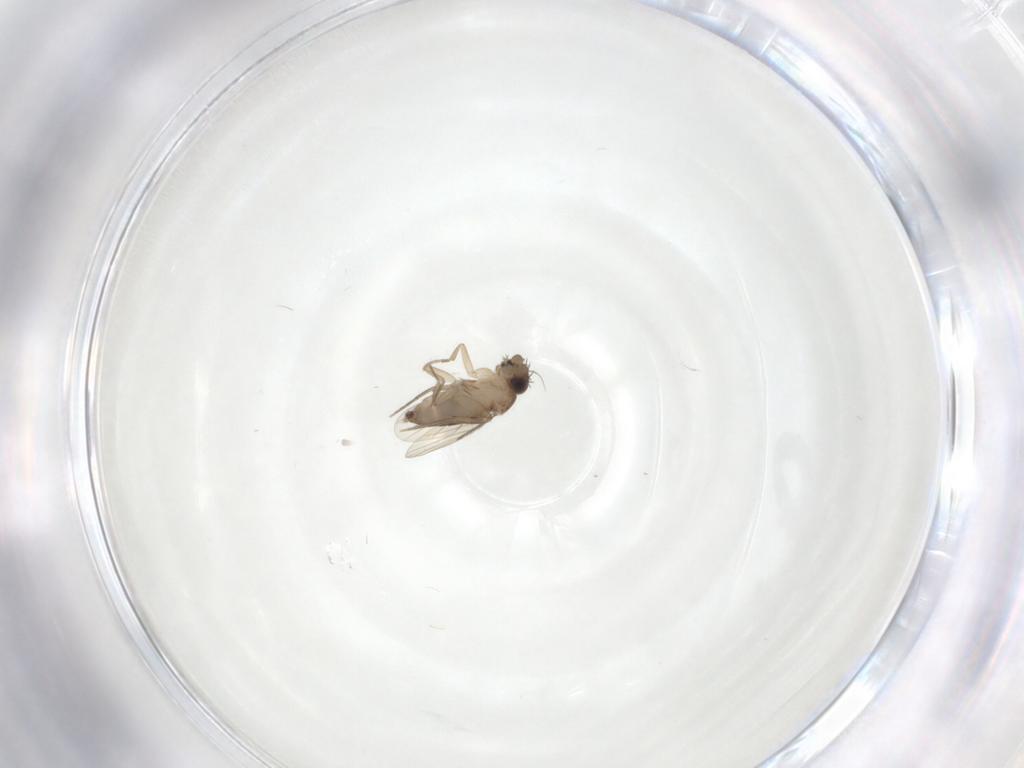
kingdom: Animalia
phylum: Arthropoda
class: Insecta
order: Diptera
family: Phoridae
